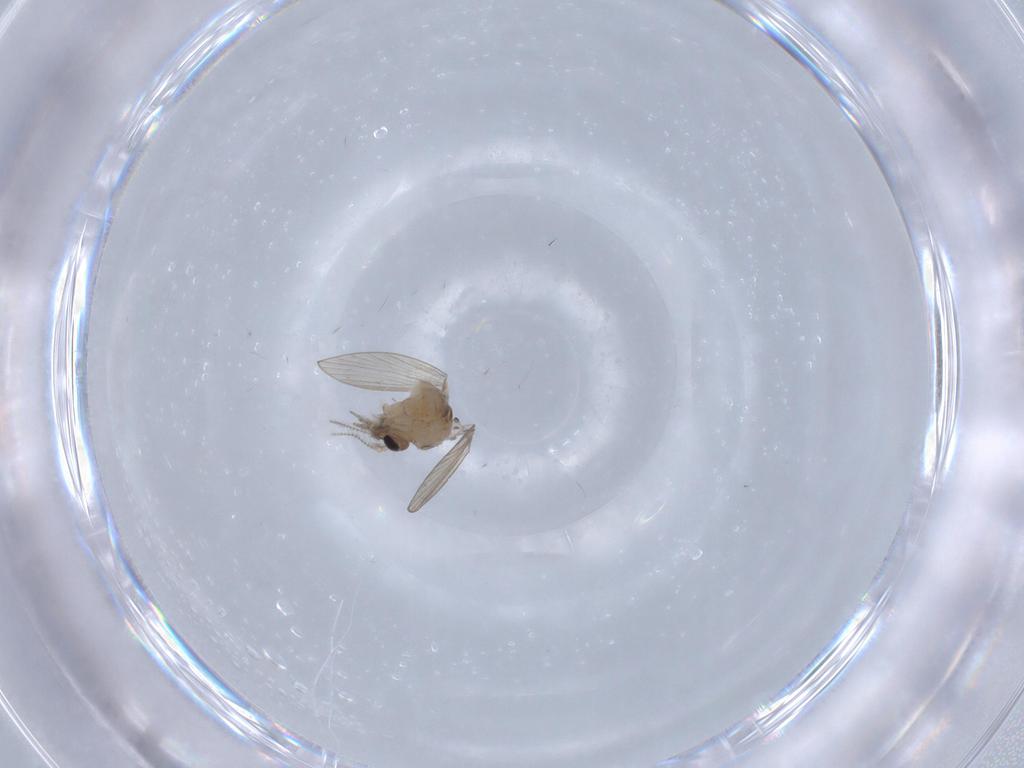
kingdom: Animalia
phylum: Arthropoda
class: Insecta
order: Diptera
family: Psychodidae
